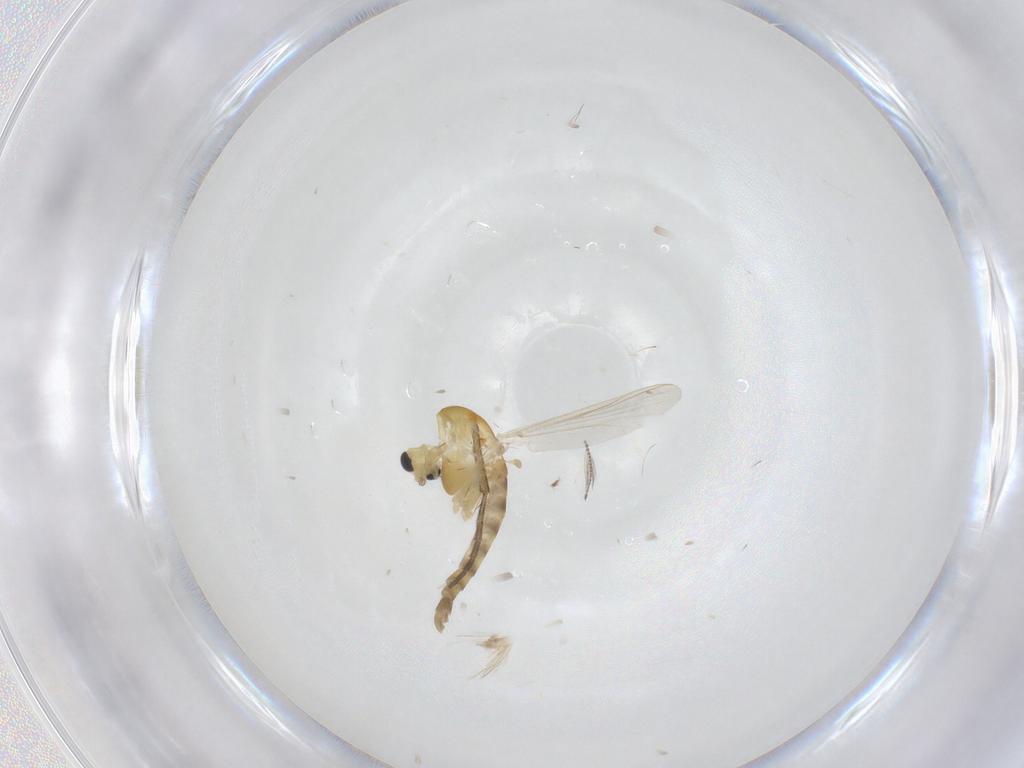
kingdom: Animalia
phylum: Arthropoda
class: Insecta
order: Diptera
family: Chironomidae
